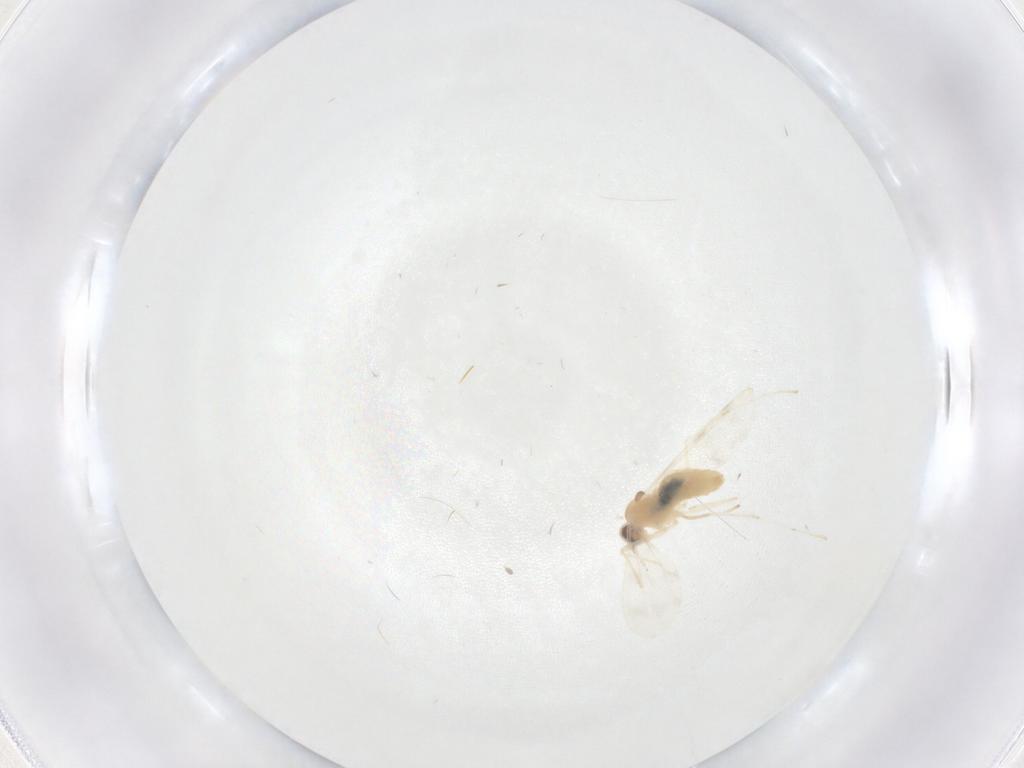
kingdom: Animalia
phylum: Arthropoda
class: Insecta
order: Diptera
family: Cecidomyiidae
